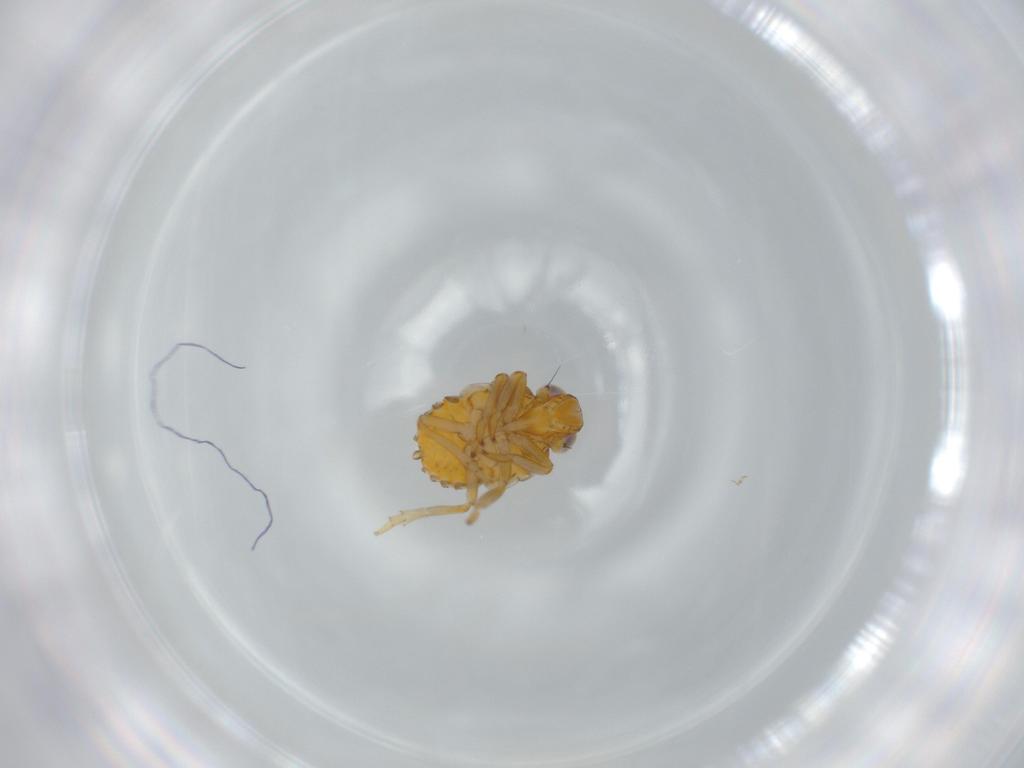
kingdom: Animalia
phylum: Arthropoda
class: Insecta
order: Hemiptera
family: Issidae
